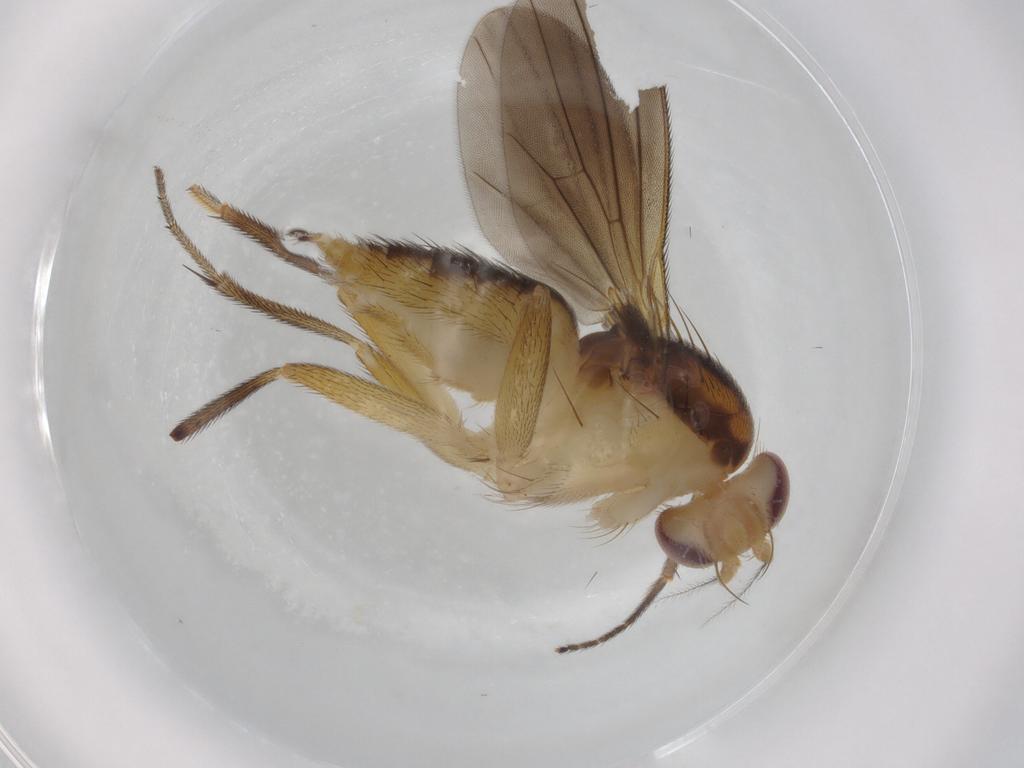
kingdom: Animalia
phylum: Arthropoda
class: Insecta
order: Diptera
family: Clusiidae
